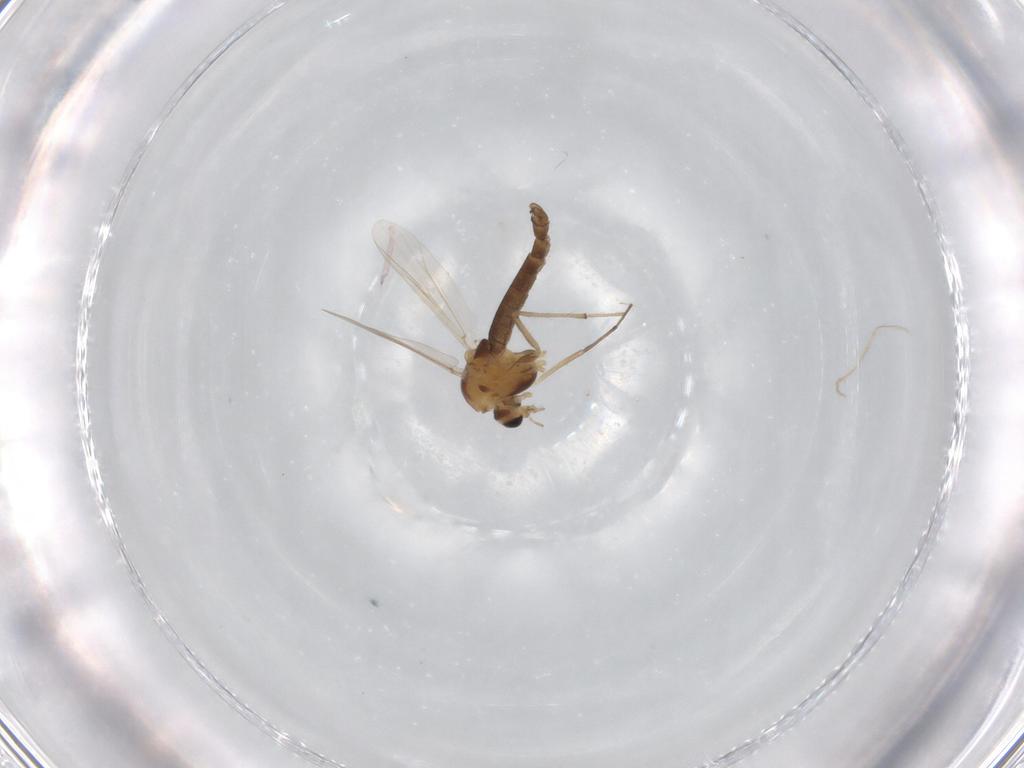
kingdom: Animalia
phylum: Arthropoda
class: Insecta
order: Diptera
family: Chironomidae
